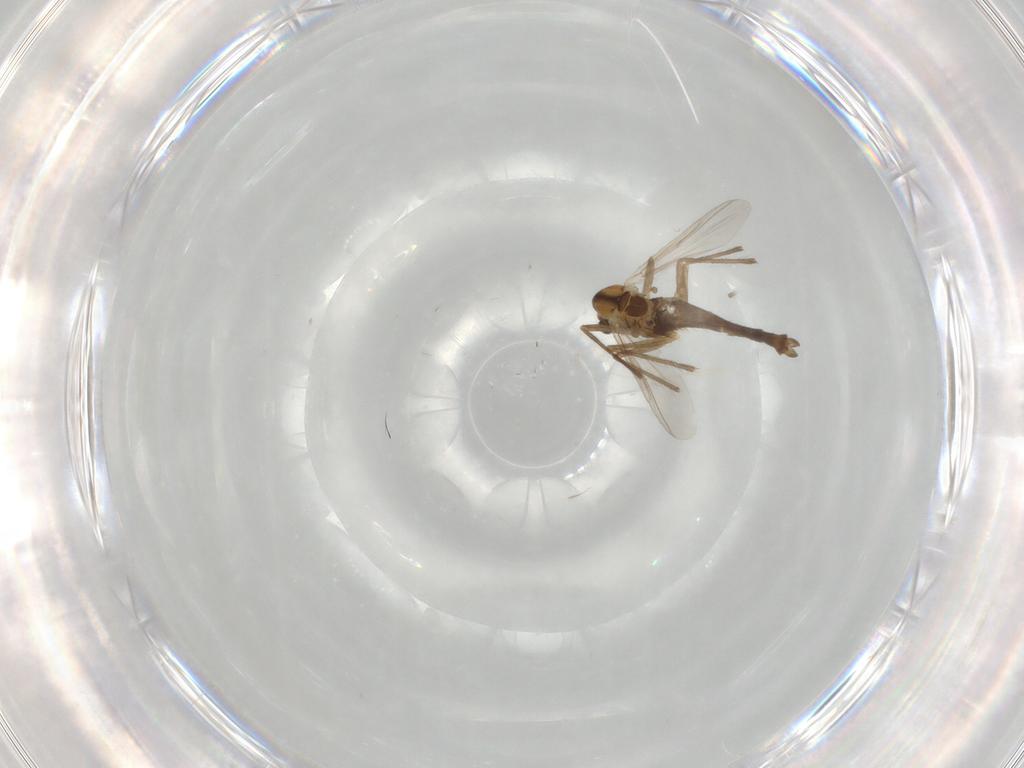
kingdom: Animalia
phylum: Arthropoda
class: Insecta
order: Diptera
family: Chironomidae
